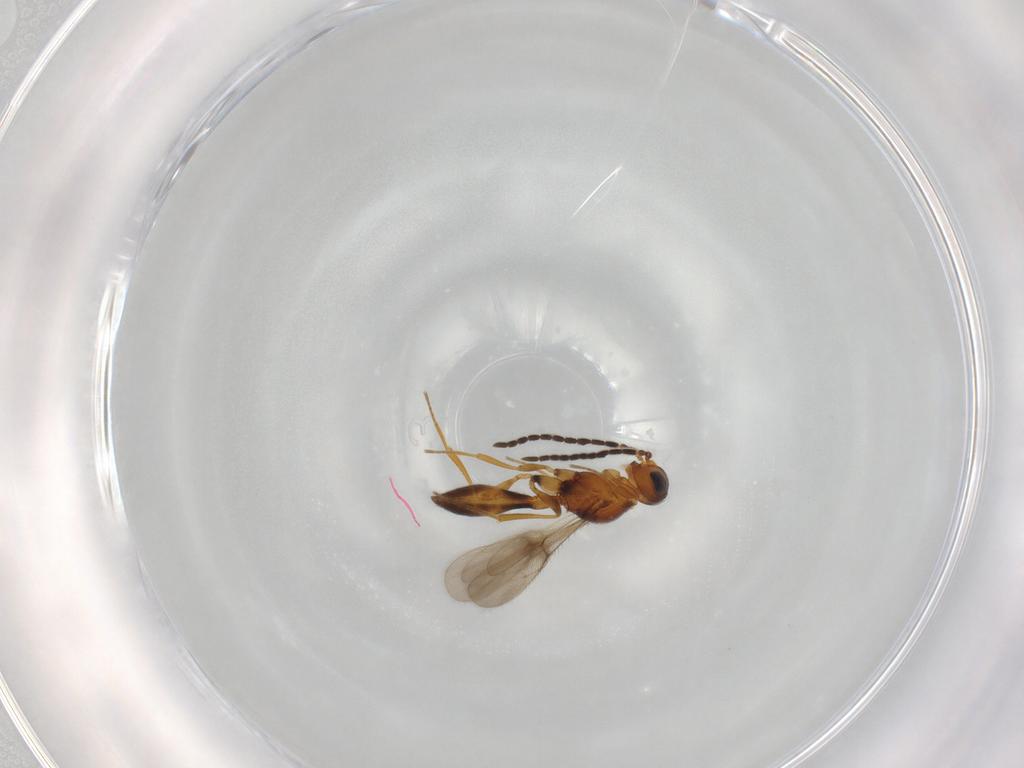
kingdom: Animalia
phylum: Arthropoda
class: Insecta
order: Hymenoptera
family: Scelionidae
